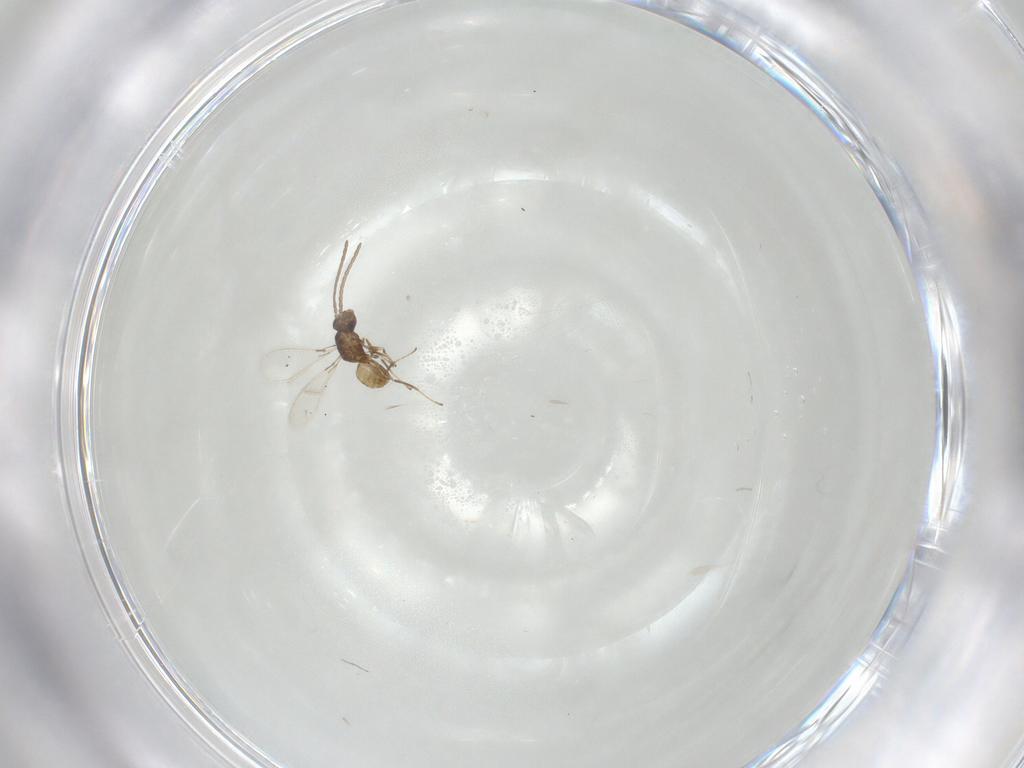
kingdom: Animalia
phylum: Arthropoda
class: Insecta
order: Hymenoptera
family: Mymaridae
